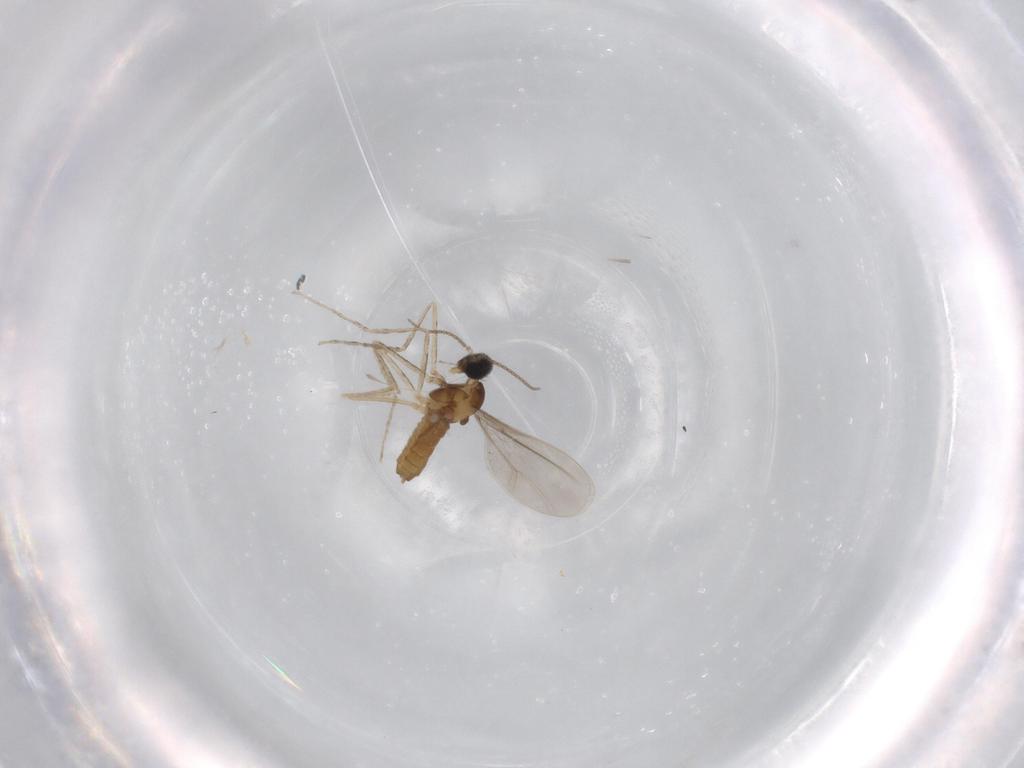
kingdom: Animalia
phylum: Arthropoda
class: Insecta
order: Diptera
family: Cecidomyiidae
